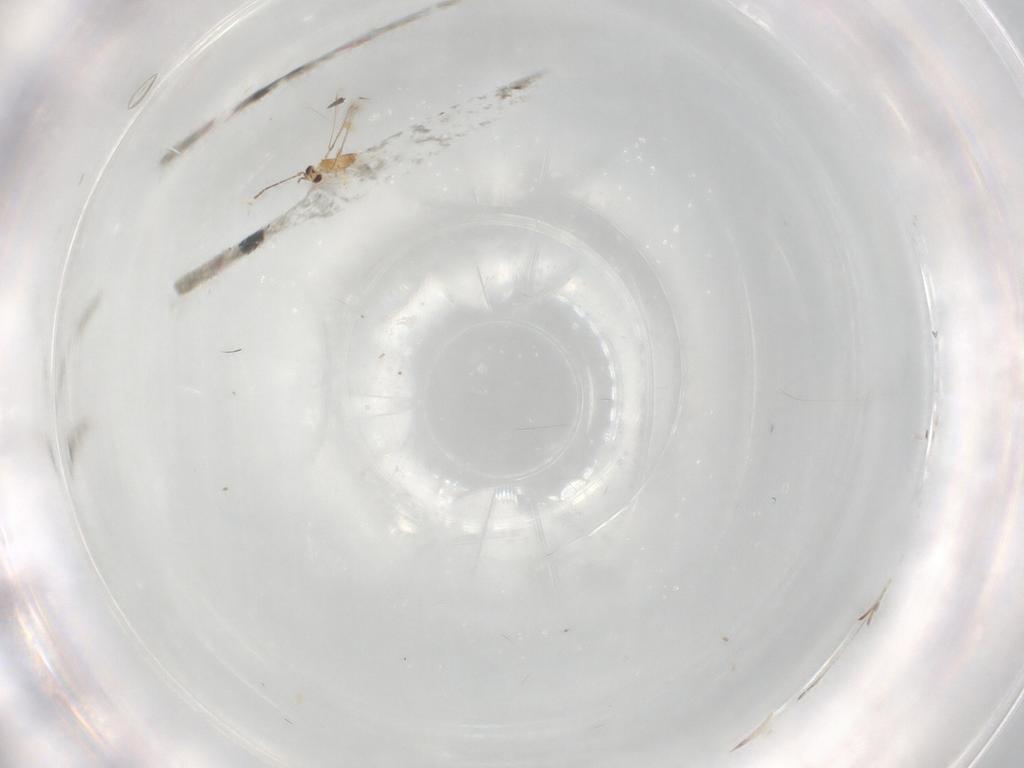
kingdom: Animalia
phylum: Arthropoda
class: Insecta
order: Hymenoptera
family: Mymaridae
